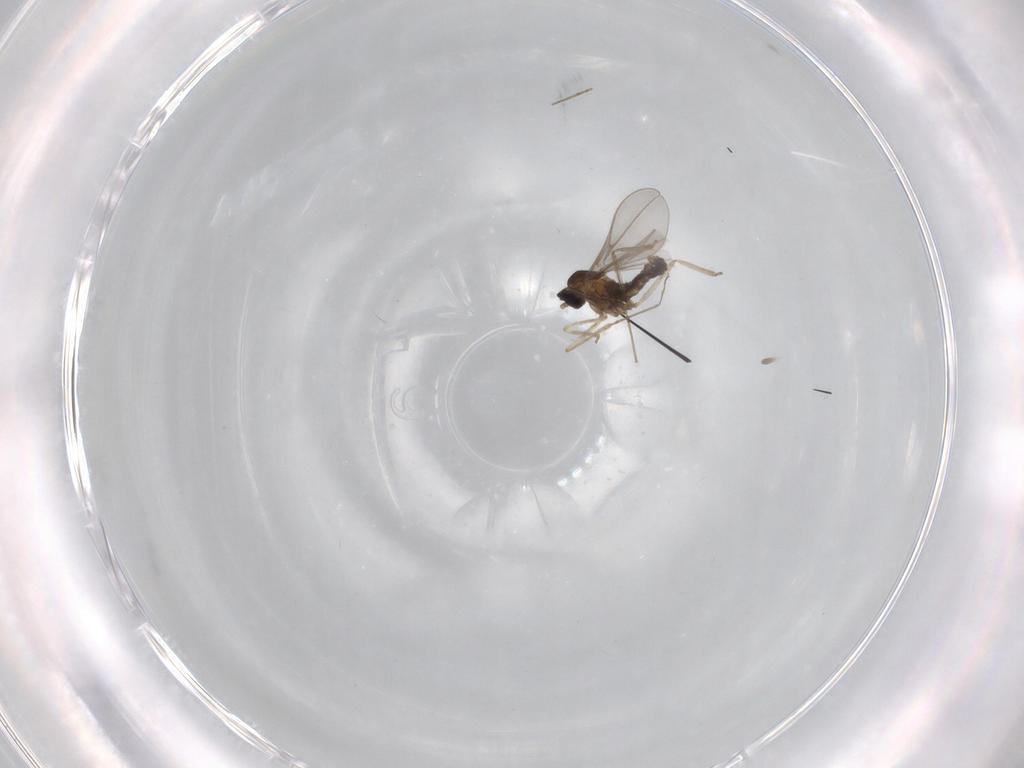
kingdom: Animalia
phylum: Arthropoda
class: Insecta
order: Diptera
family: Cecidomyiidae
